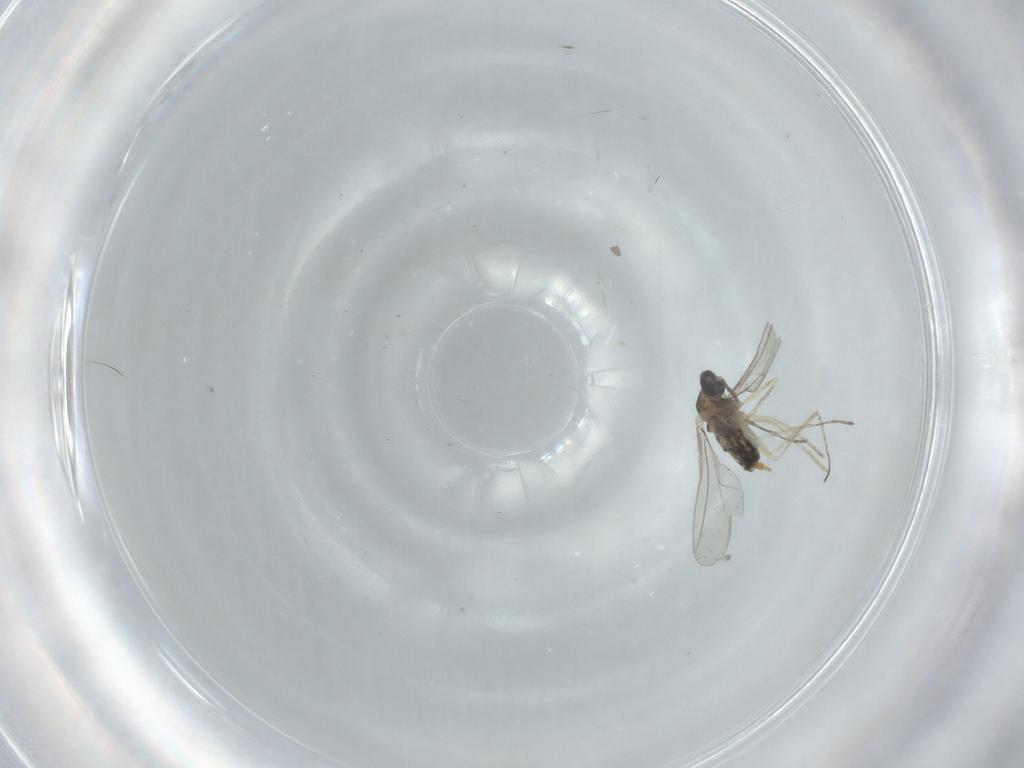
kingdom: Animalia
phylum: Arthropoda
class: Insecta
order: Diptera
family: Cecidomyiidae
